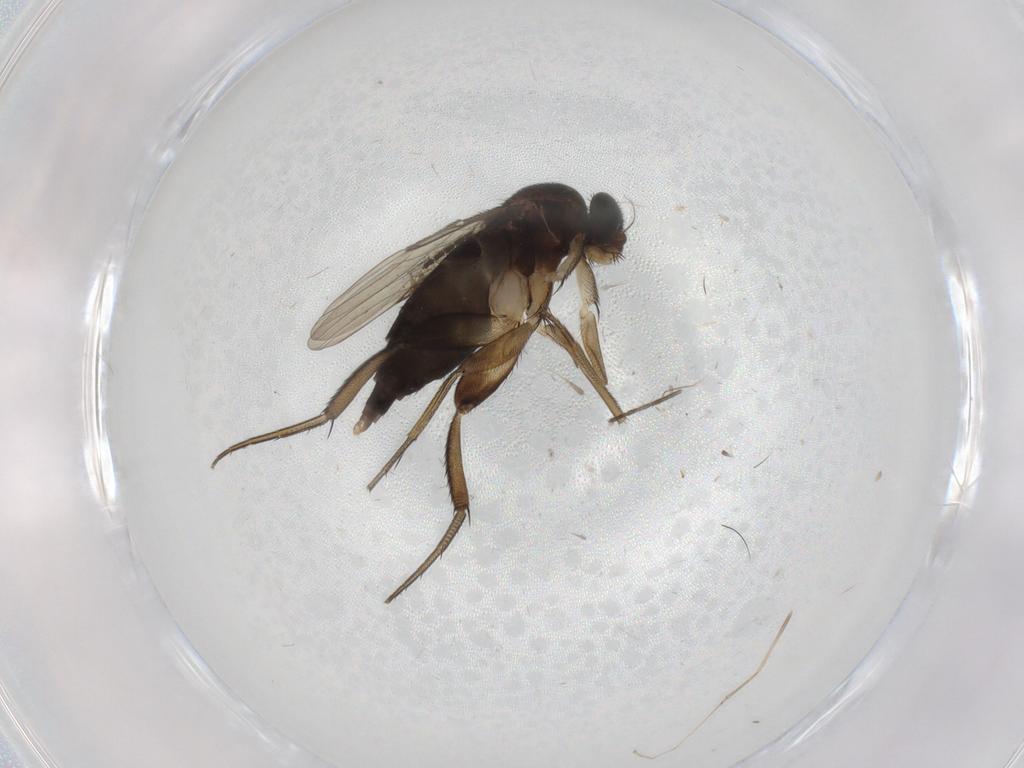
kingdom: Animalia
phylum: Arthropoda
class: Insecta
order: Diptera
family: Phoridae
